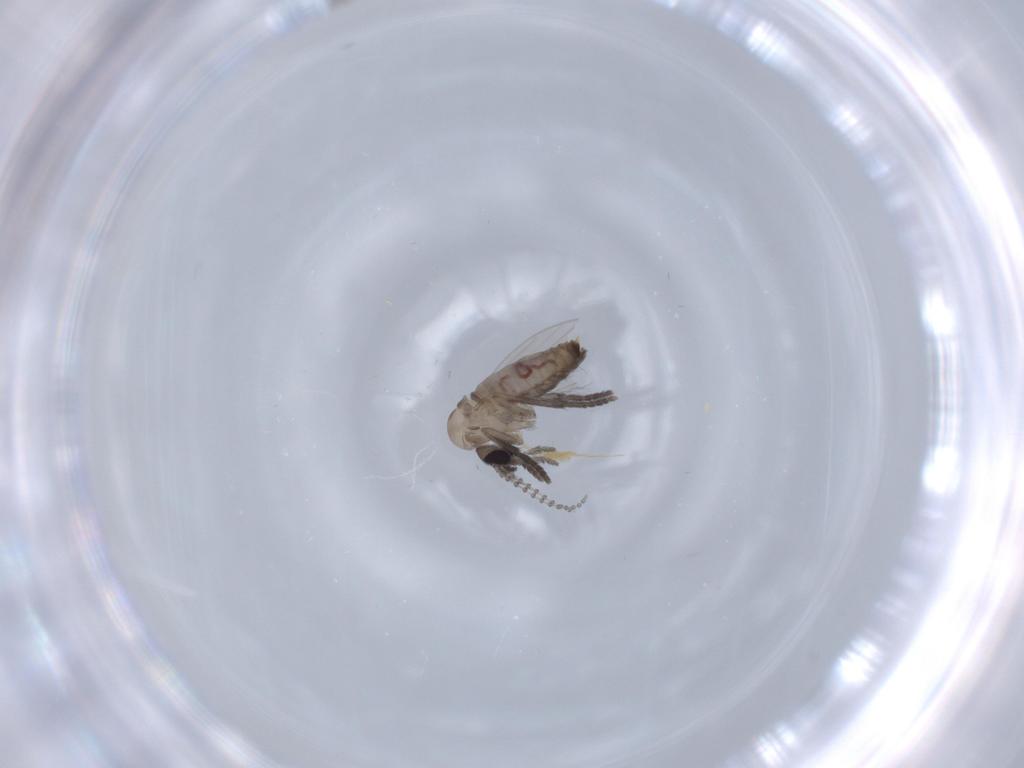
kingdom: Animalia
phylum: Arthropoda
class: Insecta
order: Diptera
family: Psychodidae
